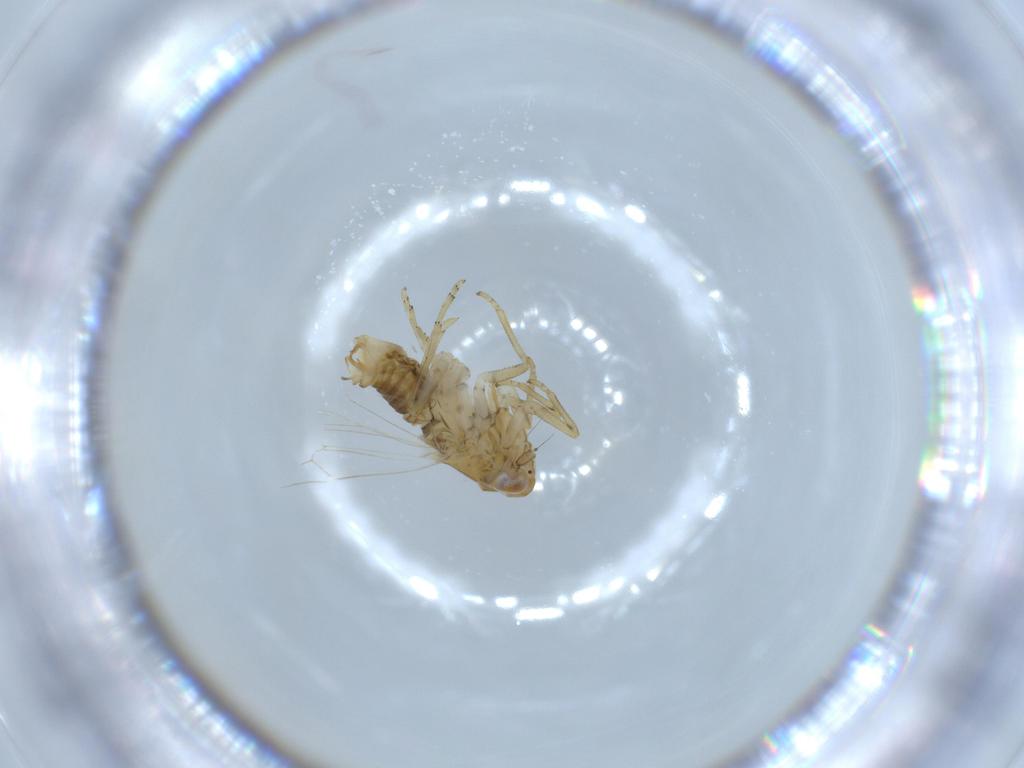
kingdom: Animalia
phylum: Arthropoda
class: Insecta
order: Hemiptera
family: Delphacidae
